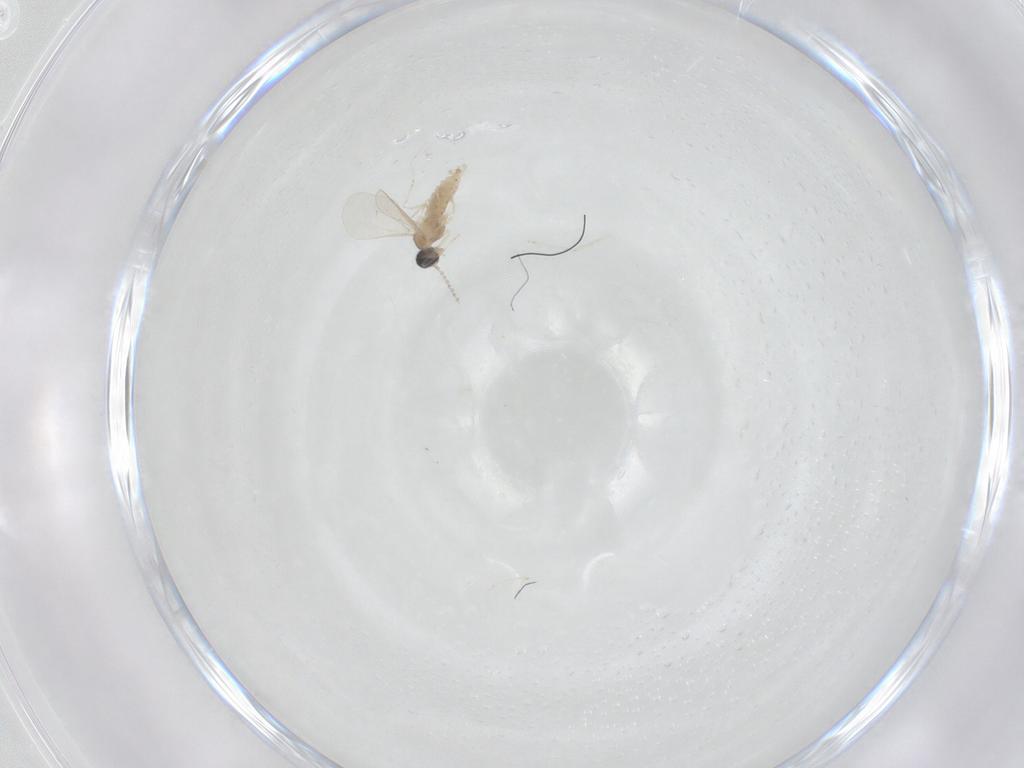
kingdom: Animalia
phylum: Arthropoda
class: Insecta
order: Diptera
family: Cecidomyiidae
